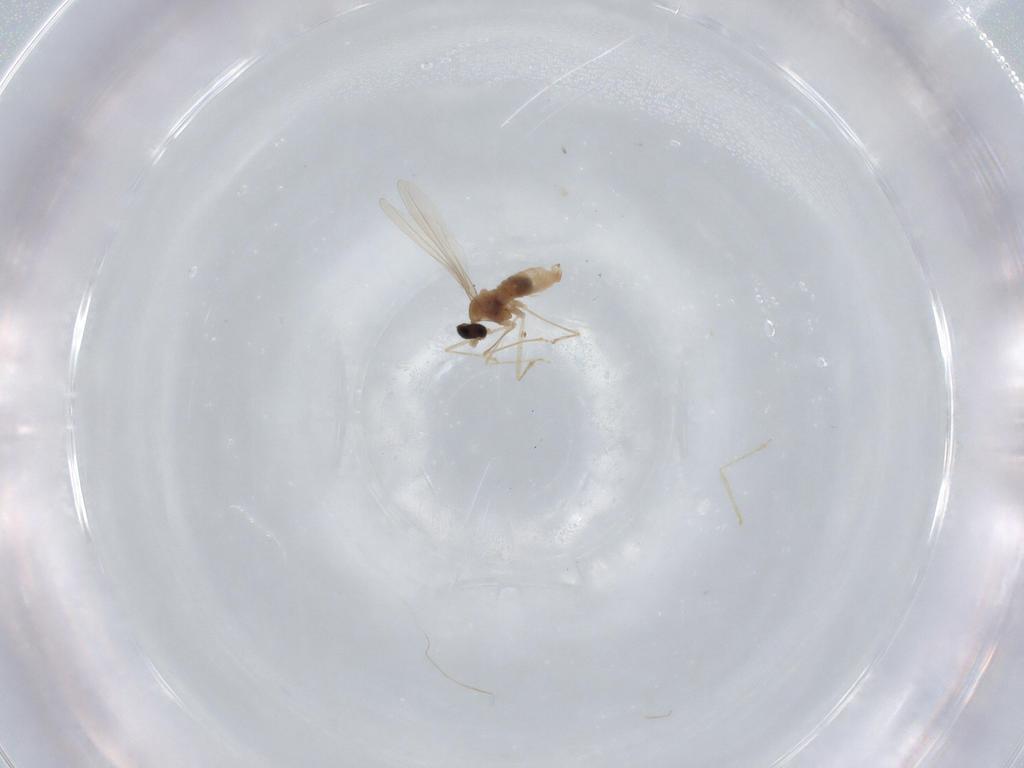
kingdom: Animalia
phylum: Arthropoda
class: Insecta
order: Diptera
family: Cecidomyiidae
